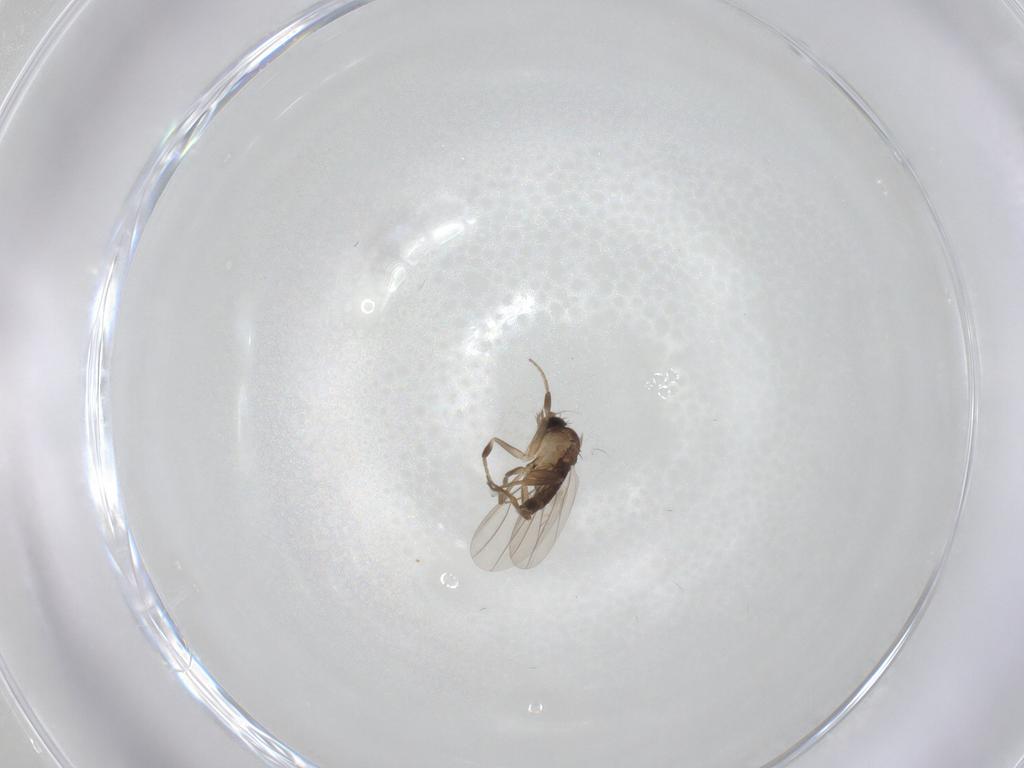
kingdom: Animalia
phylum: Arthropoda
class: Insecta
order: Diptera
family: Phoridae
